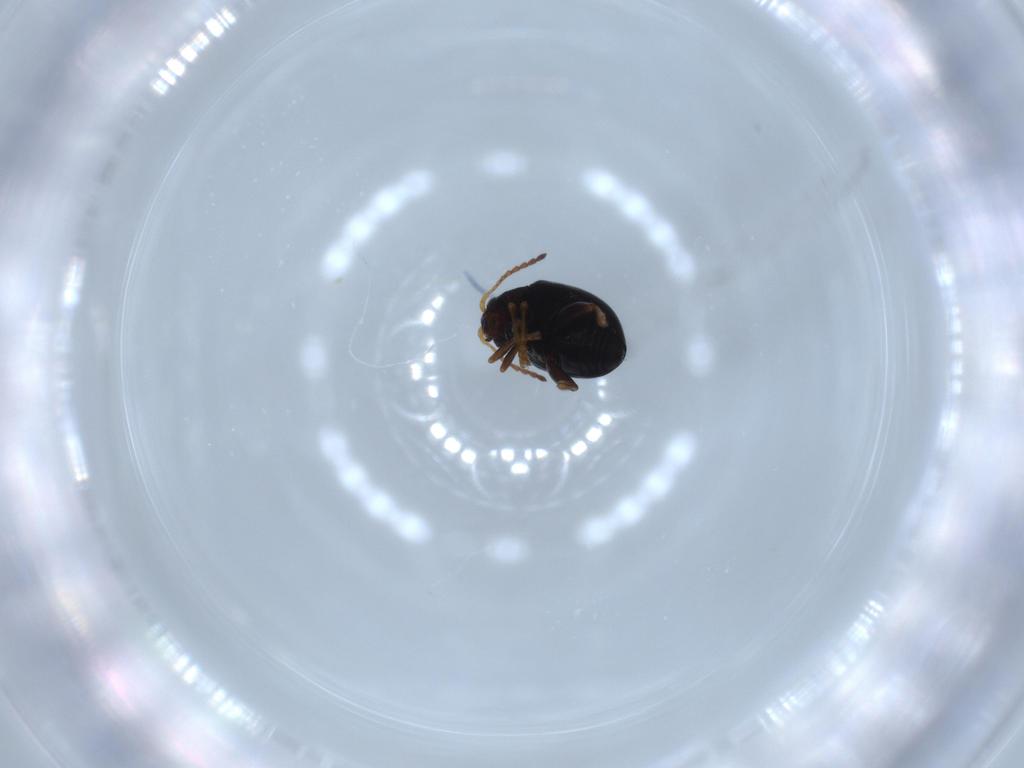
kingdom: Animalia
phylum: Arthropoda
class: Insecta
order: Coleoptera
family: Chrysomelidae
